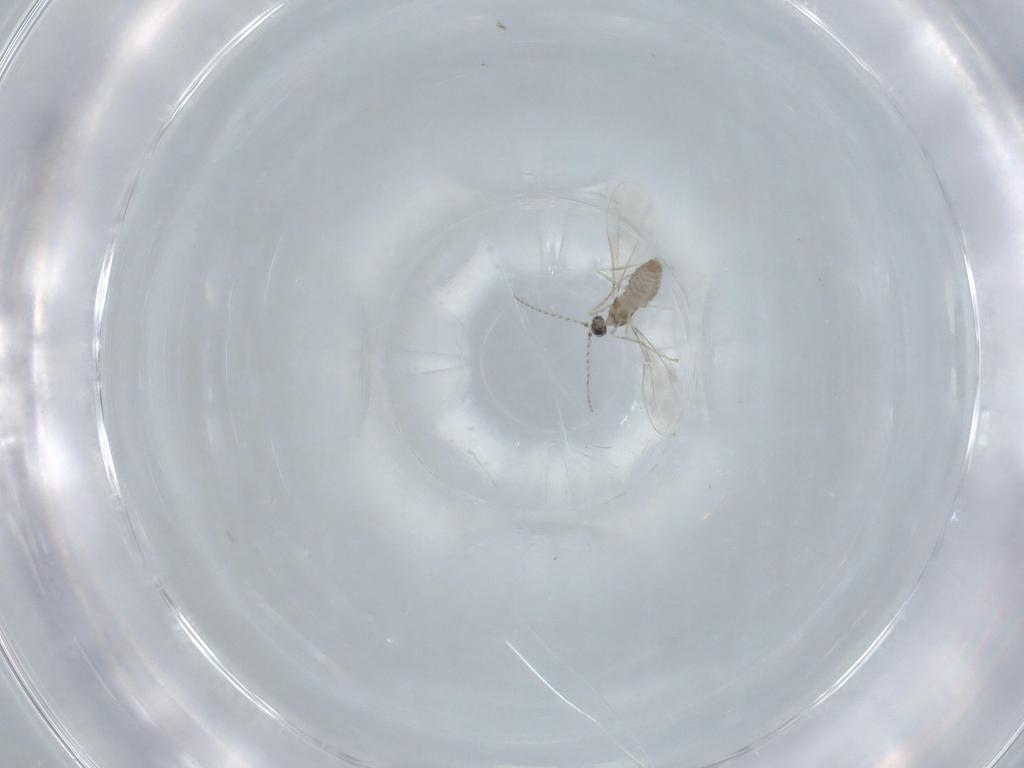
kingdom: Animalia
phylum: Arthropoda
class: Insecta
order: Diptera
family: Cecidomyiidae
